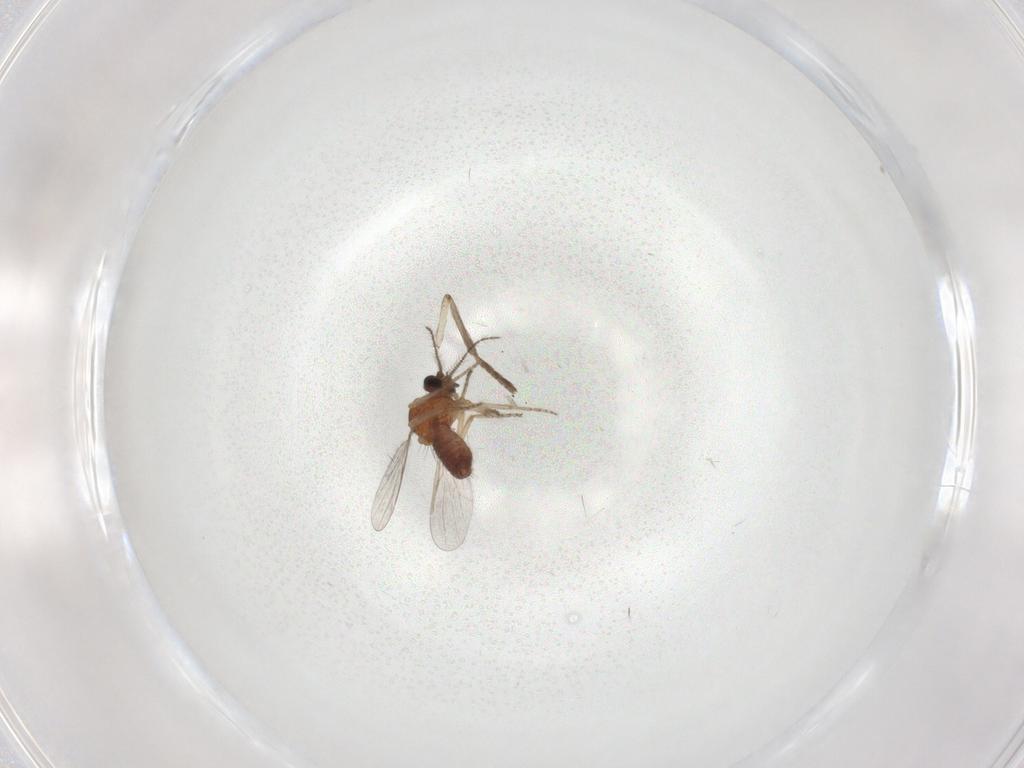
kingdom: Animalia
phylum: Arthropoda
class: Insecta
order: Diptera
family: Ceratopogonidae
